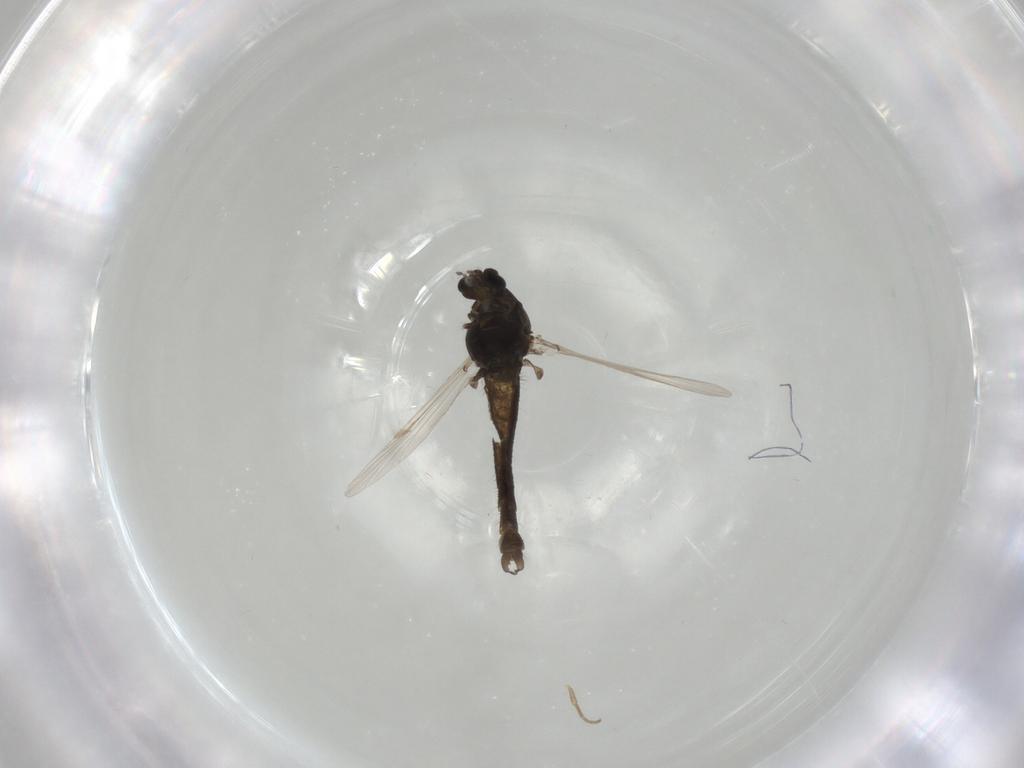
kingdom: Animalia
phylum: Arthropoda
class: Insecta
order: Diptera
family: Chironomidae
